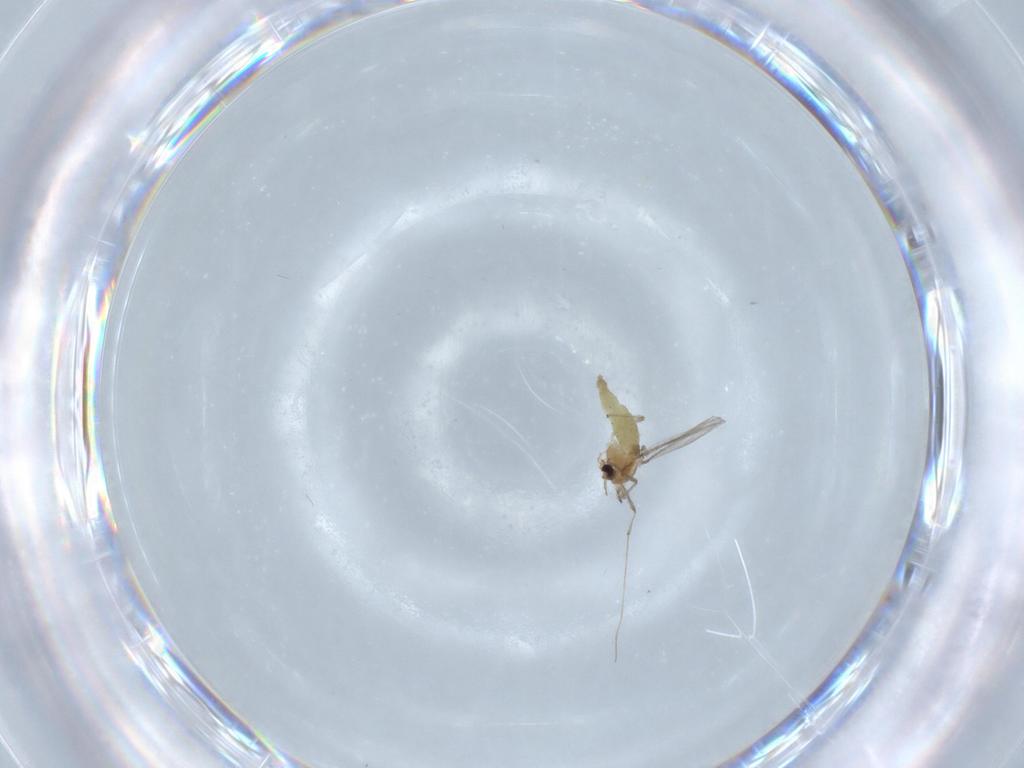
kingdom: Animalia
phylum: Arthropoda
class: Insecta
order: Diptera
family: Chironomidae
